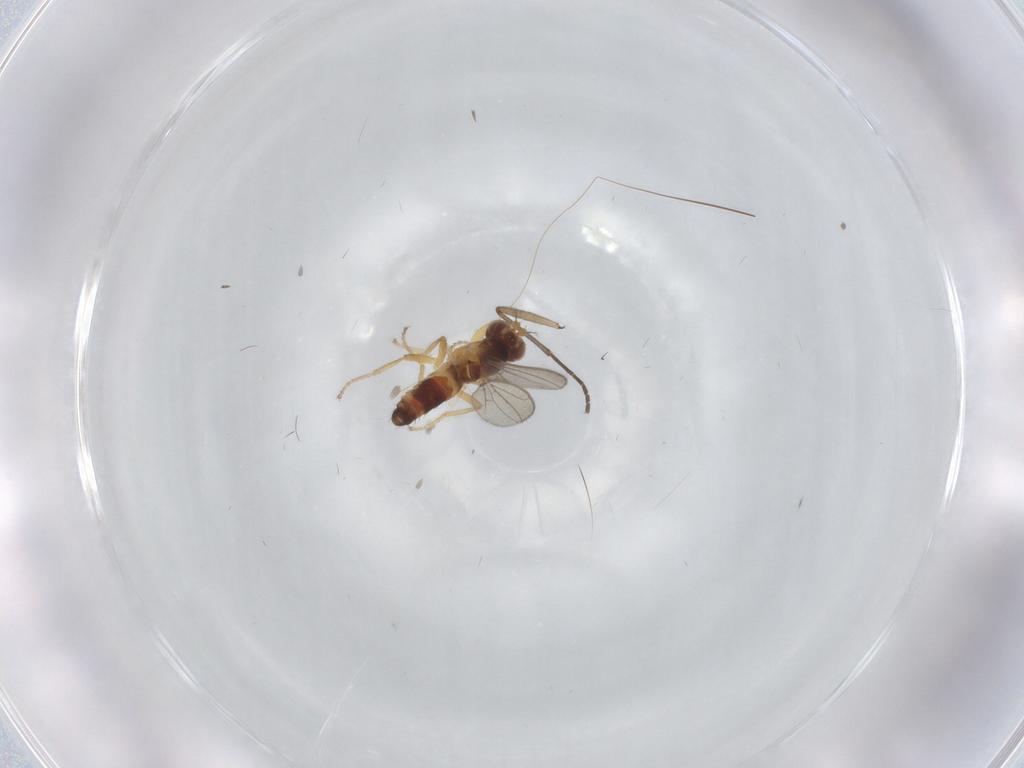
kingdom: Animalia
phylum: Arthropoda
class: Insecta
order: Diptera
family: Periscelididae
